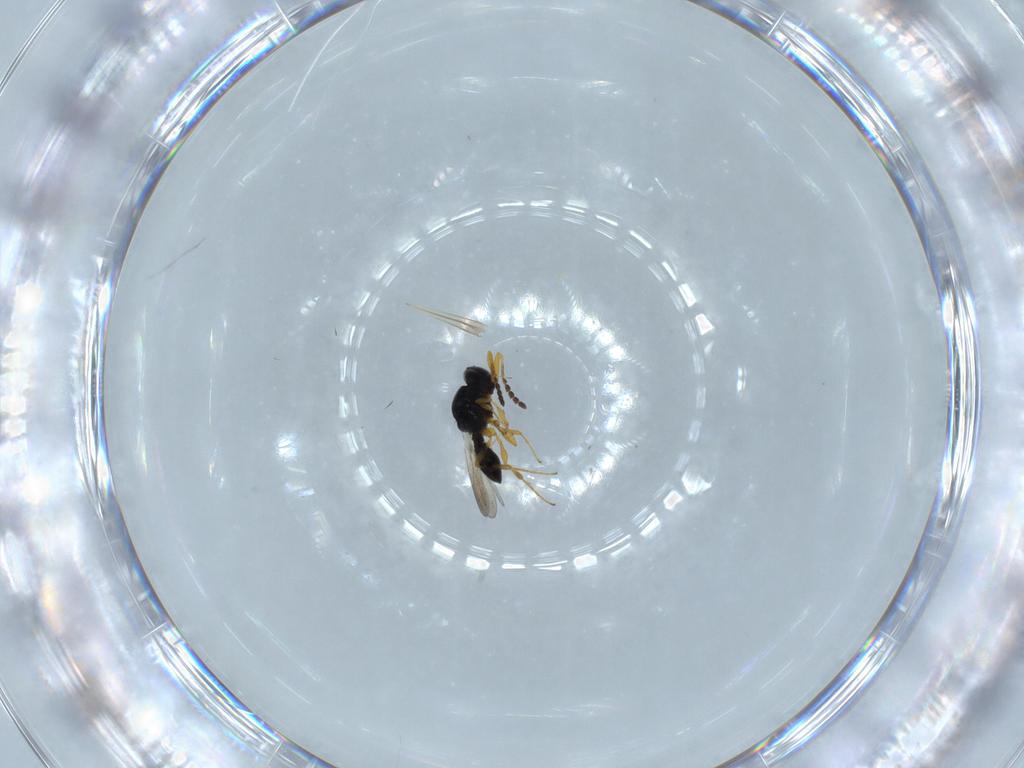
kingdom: Animalia
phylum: Arthropoda
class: Insecta
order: Hymenoptera
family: Platygastridae
